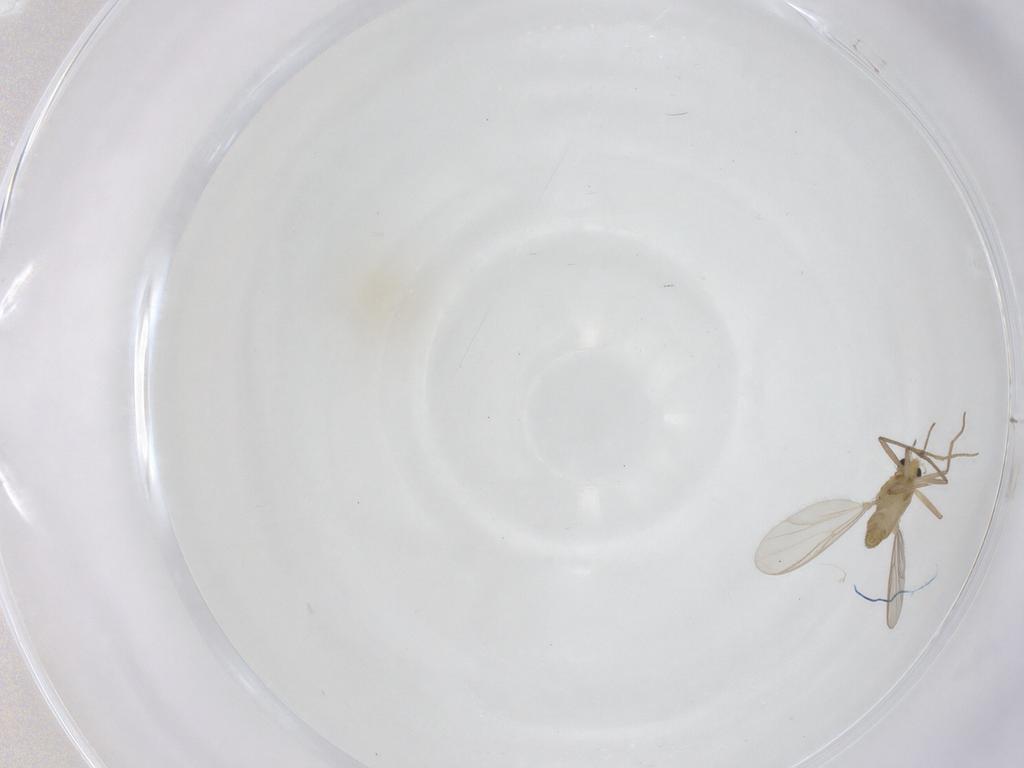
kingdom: Animalia
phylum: Arthropoda
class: Insecta
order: Diptera
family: Chironomidae
